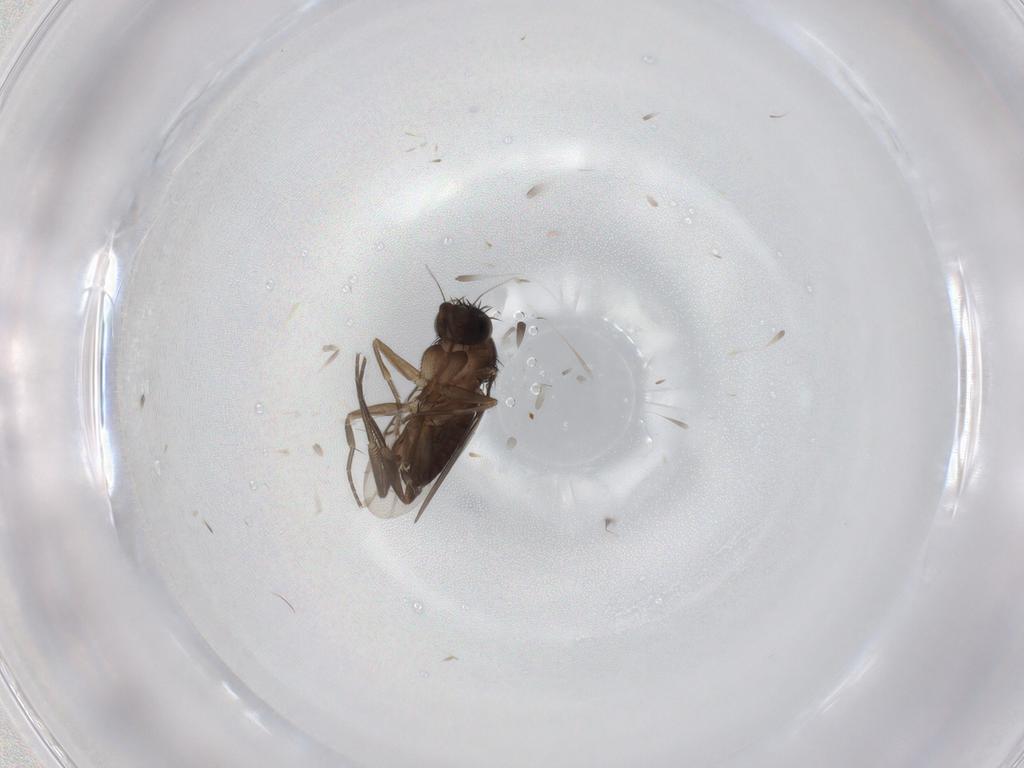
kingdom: Animalia
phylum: Arthropoda
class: Insecta
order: Diptera
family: Phoridae
